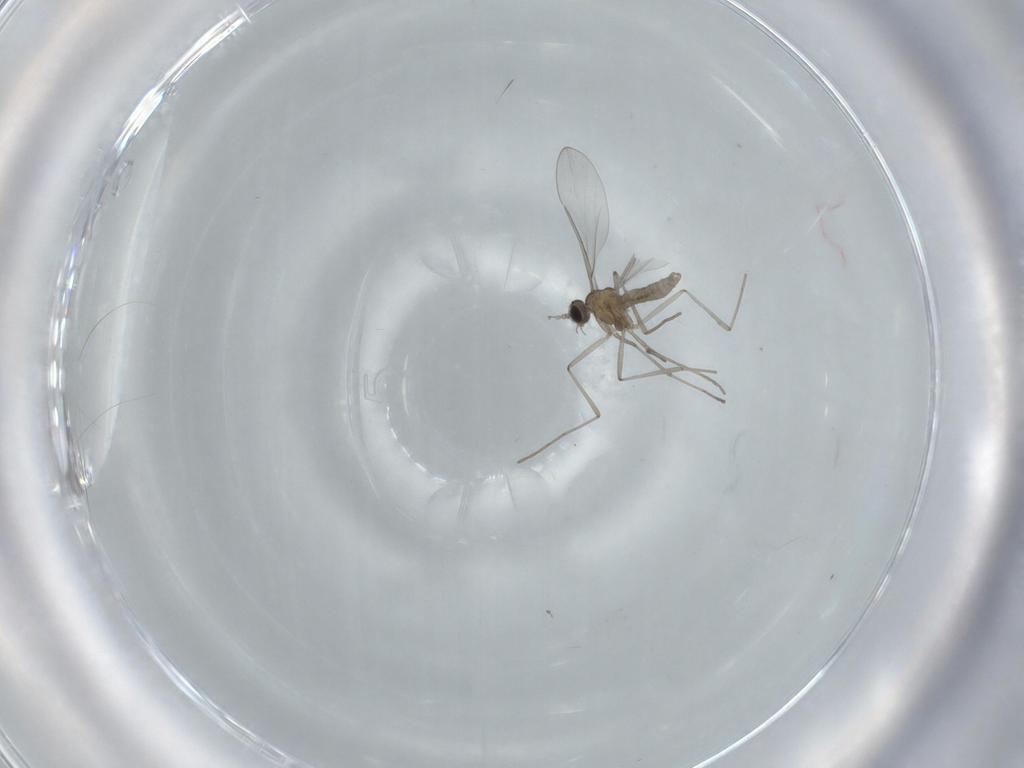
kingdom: Animalia
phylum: Arthropoda
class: Insecta
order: Diptera
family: Cecidomyiidae
